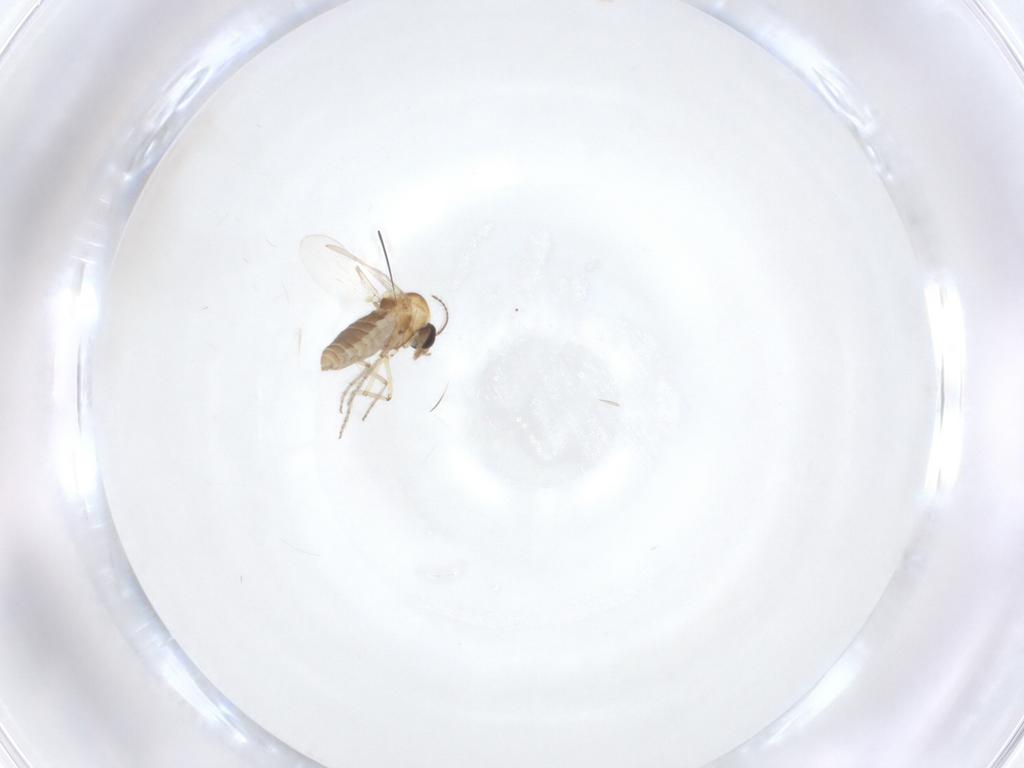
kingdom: Animalia
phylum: Arthropoda
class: Insecta
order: Diptera
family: Ceratopogonidae
